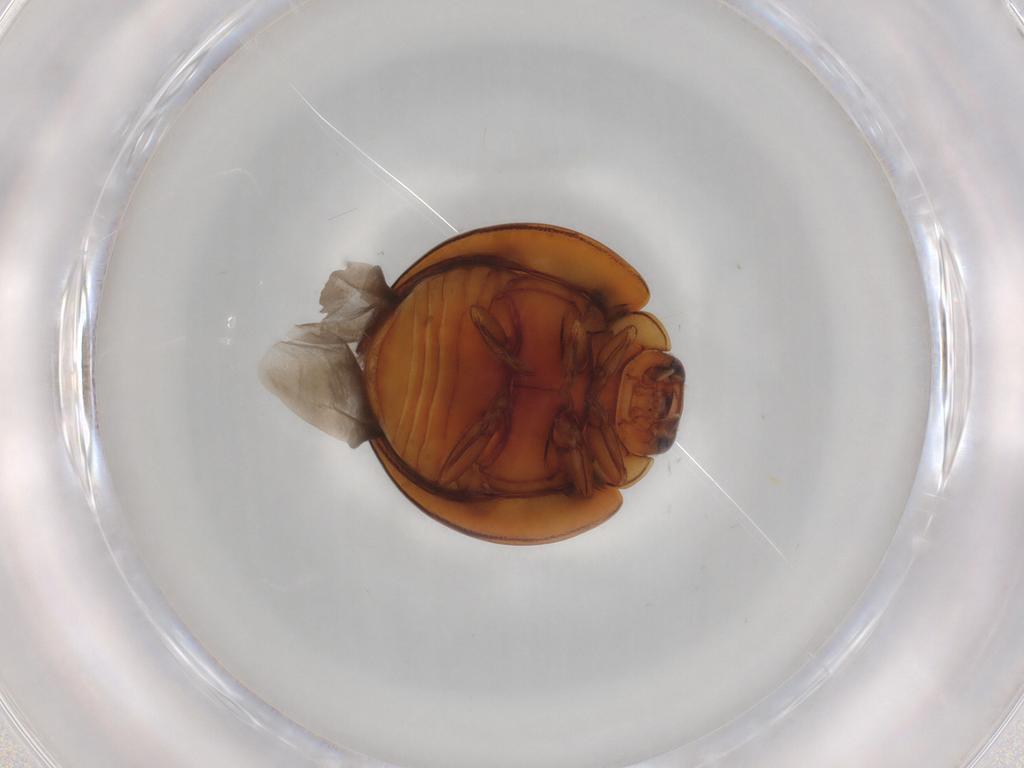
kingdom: Animalia
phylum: Arthropoda
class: Insecta
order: Coleoptera
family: Coccinellidae
